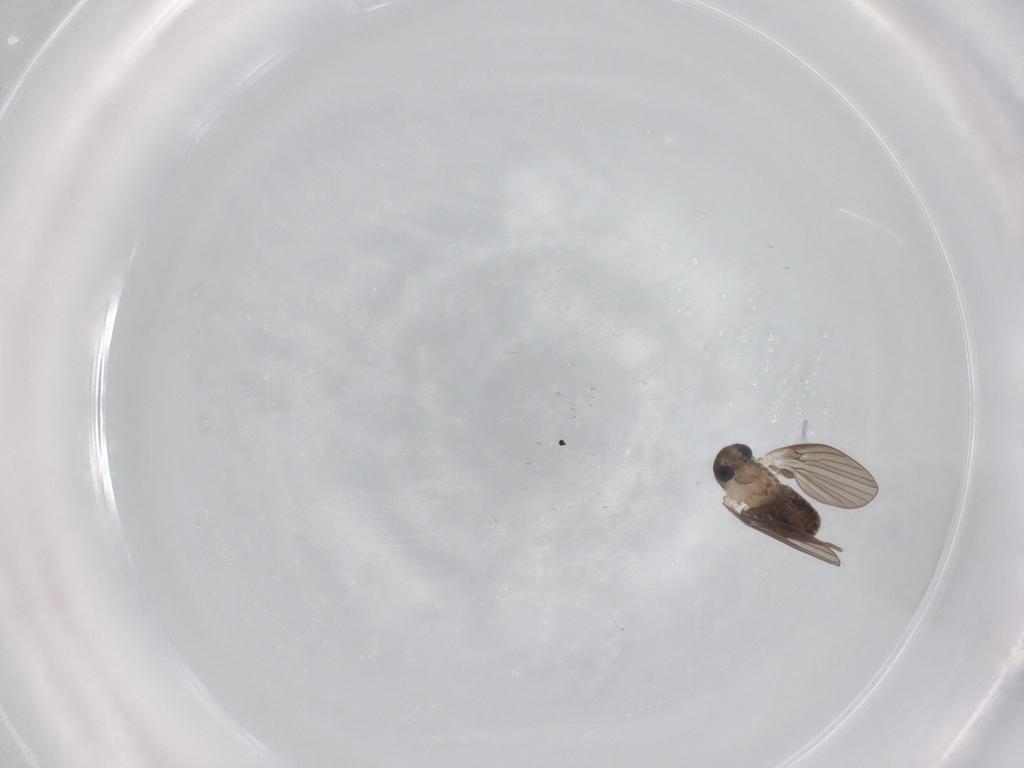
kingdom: Animalia
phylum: Arthropoda
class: Insecta
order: Diptera
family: Cecidomyiidae
